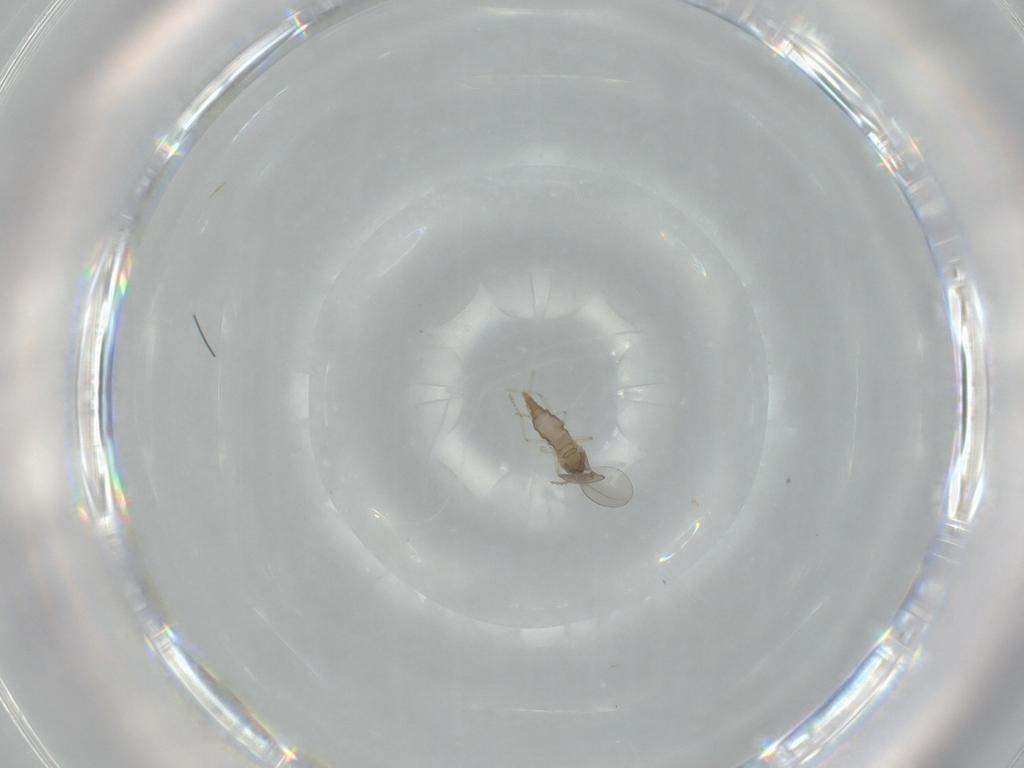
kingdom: Animalia
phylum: Arthropoda
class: Insecta
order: Diptera
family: Cecidomyiidae
